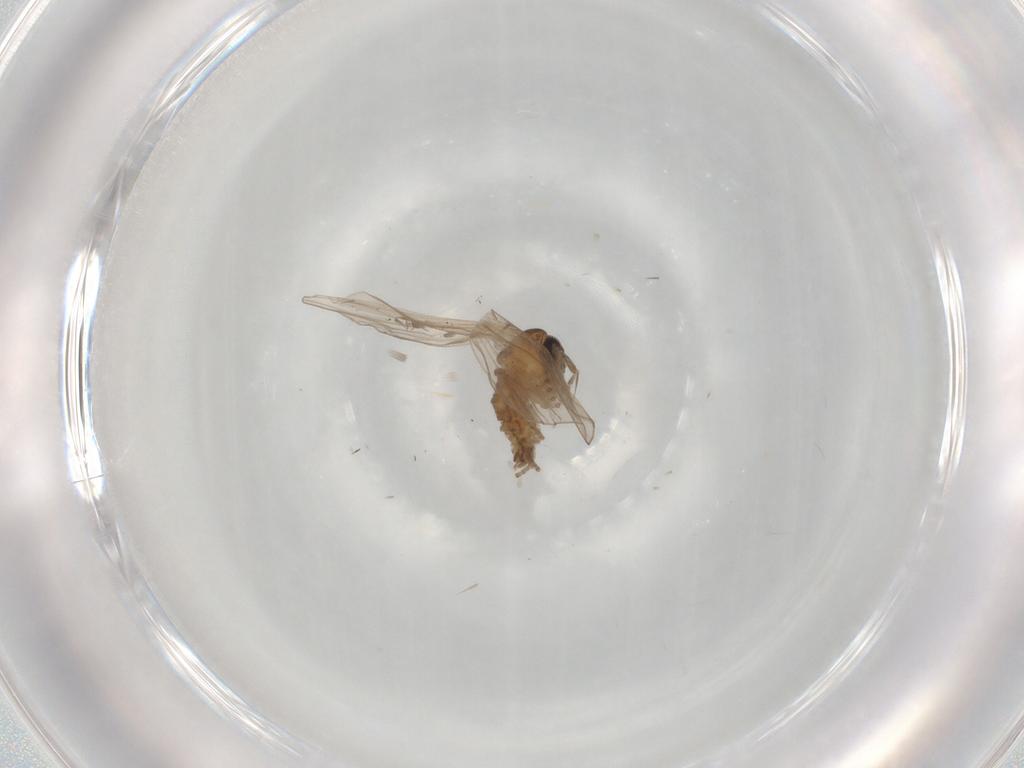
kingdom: Animalia
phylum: Arthropoda
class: Insecta
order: Diptera
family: Psychodidae
